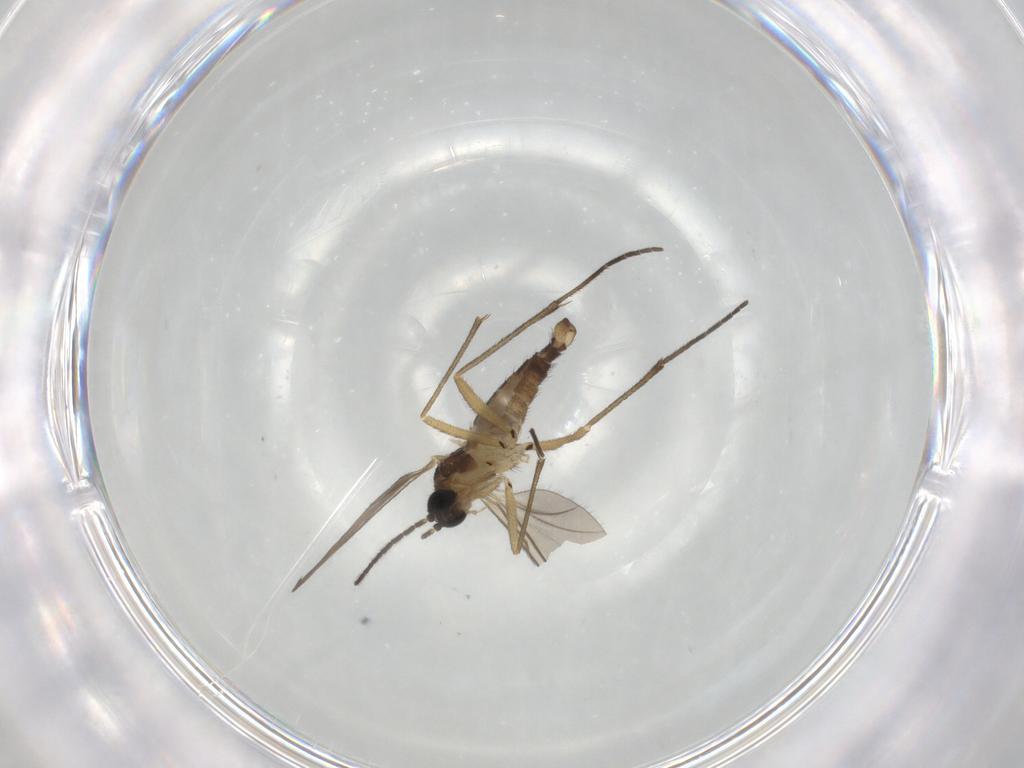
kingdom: Animalia
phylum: Arthropoda
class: Insecta
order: Diptera
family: Sciaridae
